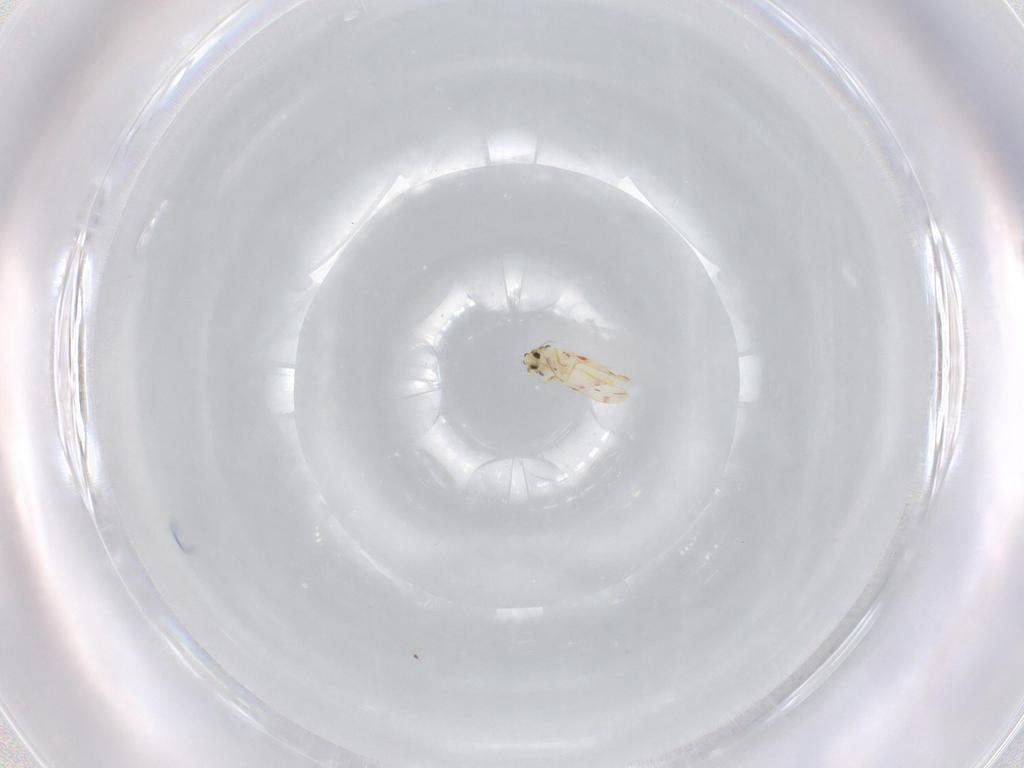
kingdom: Animalia
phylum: Arthropoda
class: Insecta
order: Hemiptera
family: Aleyrodidae
